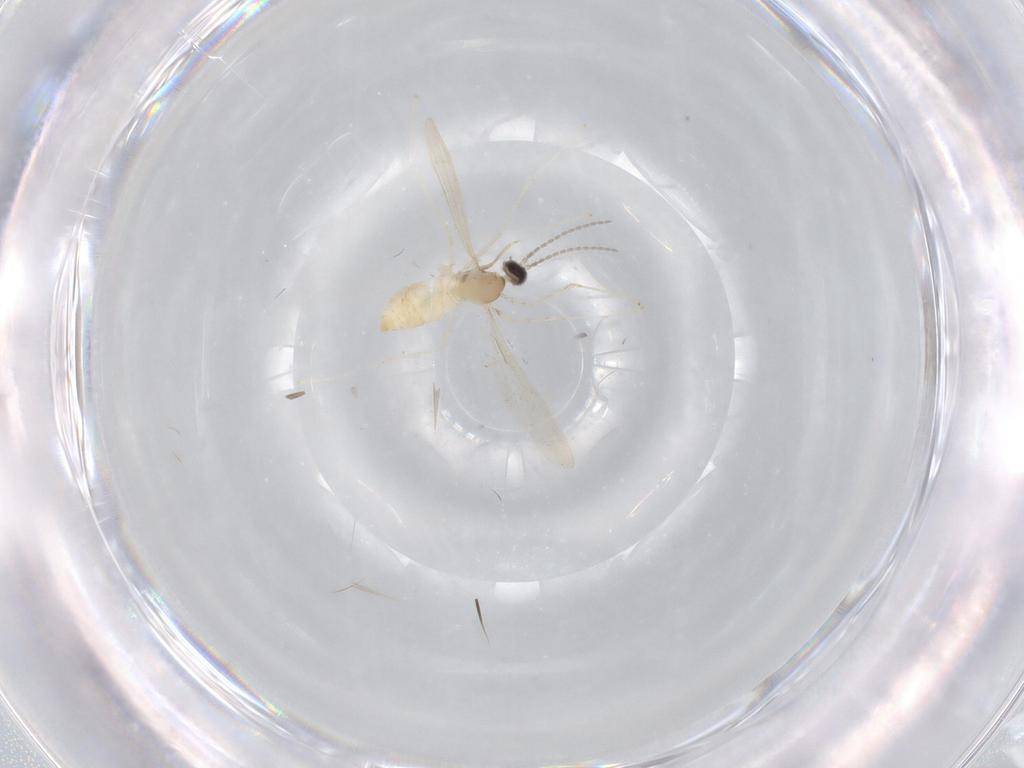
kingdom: Animalia
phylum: Arthropoda
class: Insecta
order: Diptera
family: Cecidomyiidae
